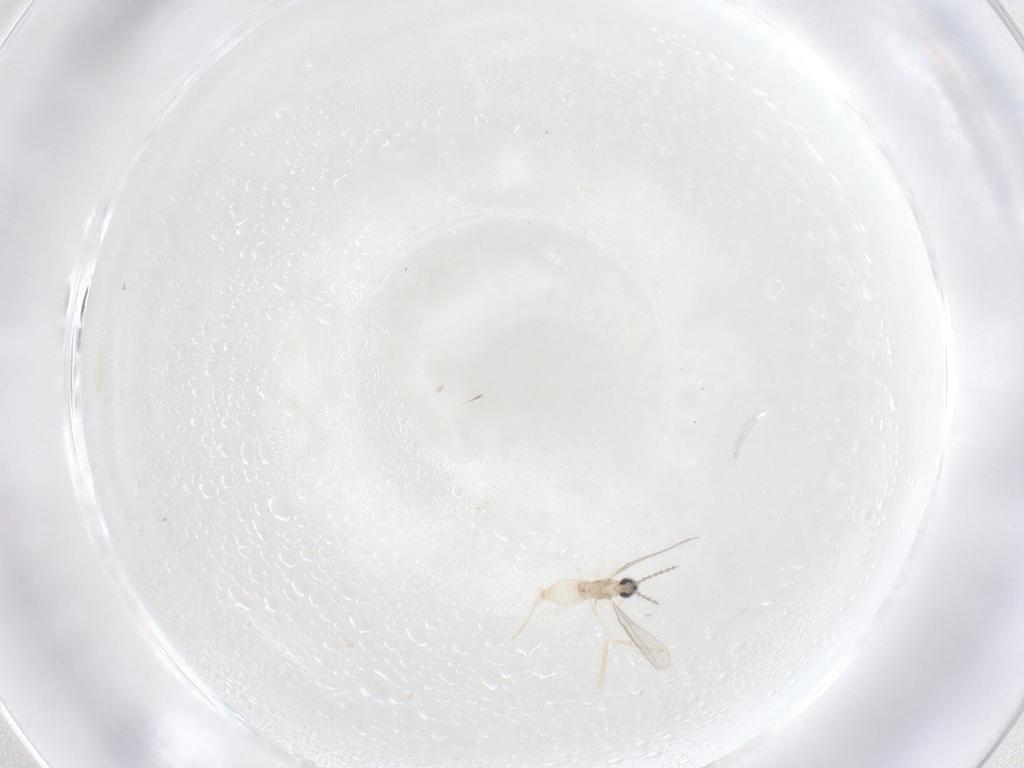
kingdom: Animalia
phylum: Arthropoda
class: Insecta
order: Diptera
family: Cecidomyiidae
